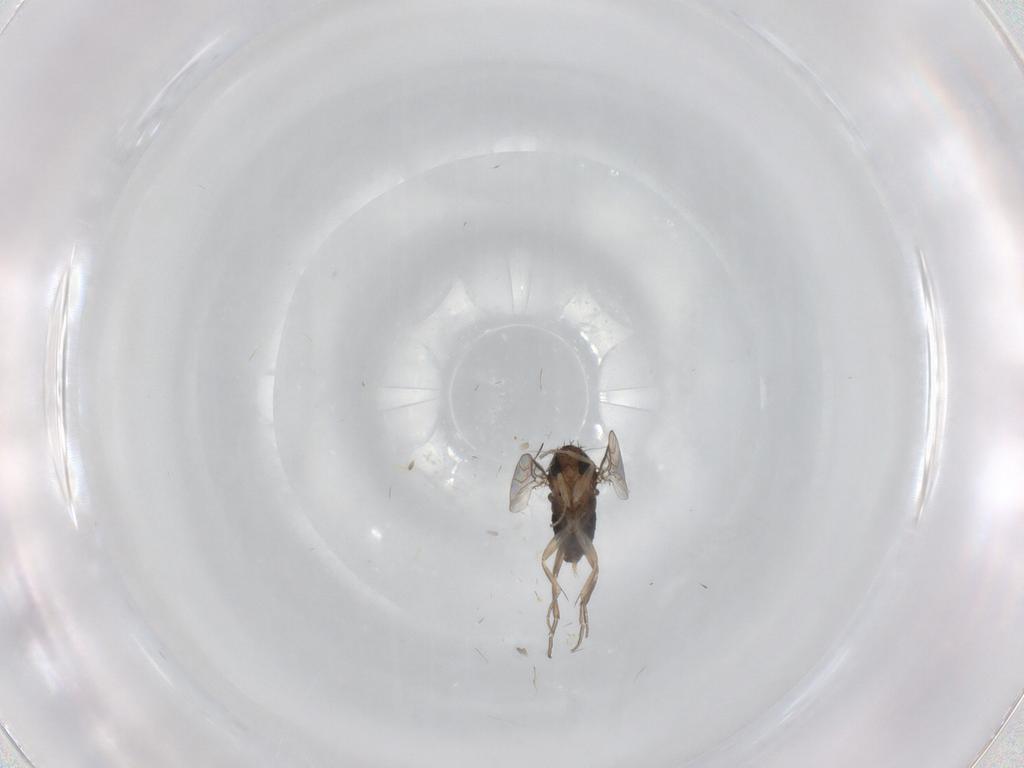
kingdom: Animalia
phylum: Arthropoda
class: Insecta
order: Diptera
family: Phoridae
